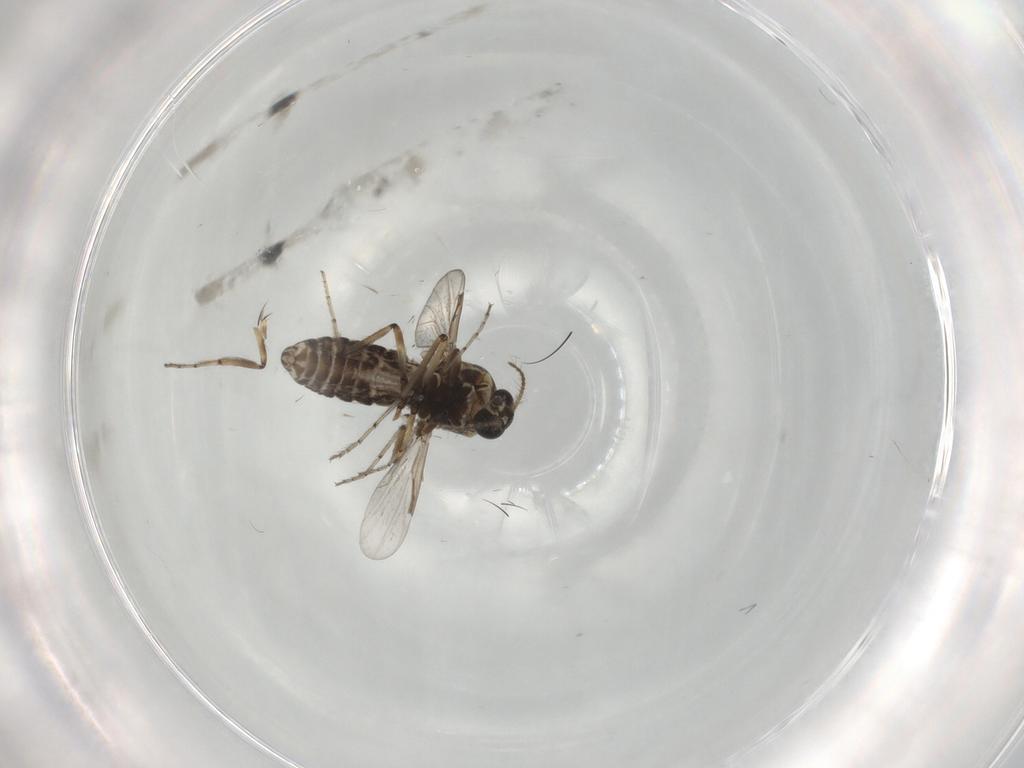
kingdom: Animalia
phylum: Arthropoda
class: Insecta
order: Diptera
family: Ceratopogonidae
